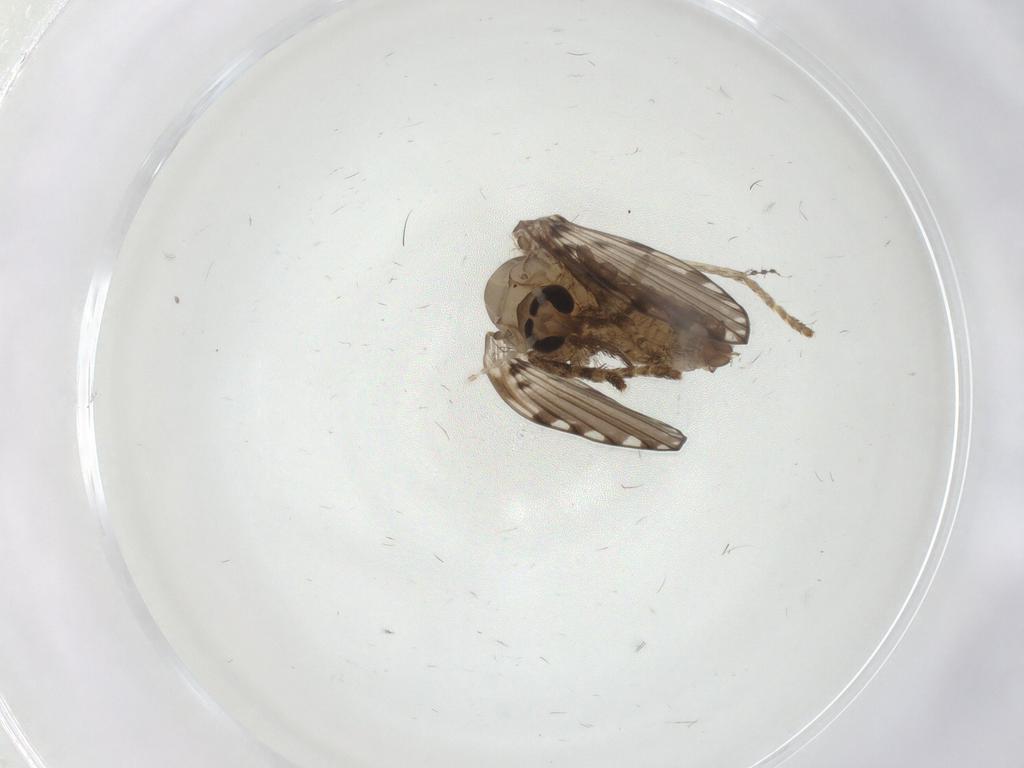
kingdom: Animalia
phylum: Arthropoda
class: Insecta
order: Diptera
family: Psychodidae
